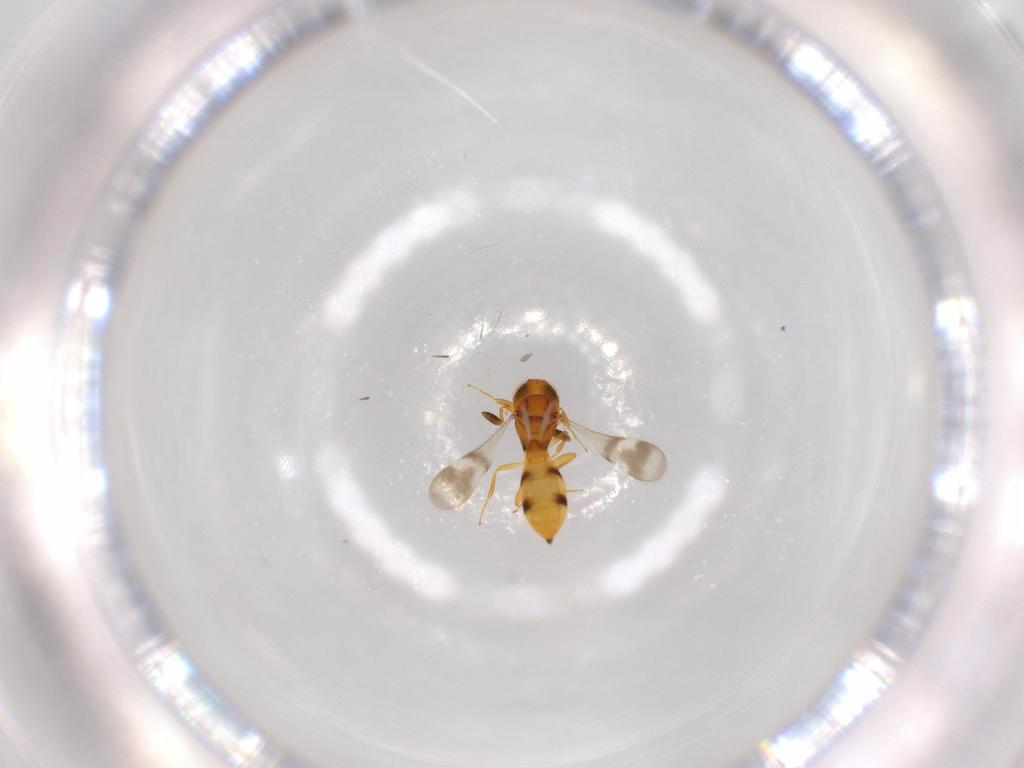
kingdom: Animalia
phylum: Arthropoda
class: Insecta
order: Hymenoptera
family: Scelionidae
